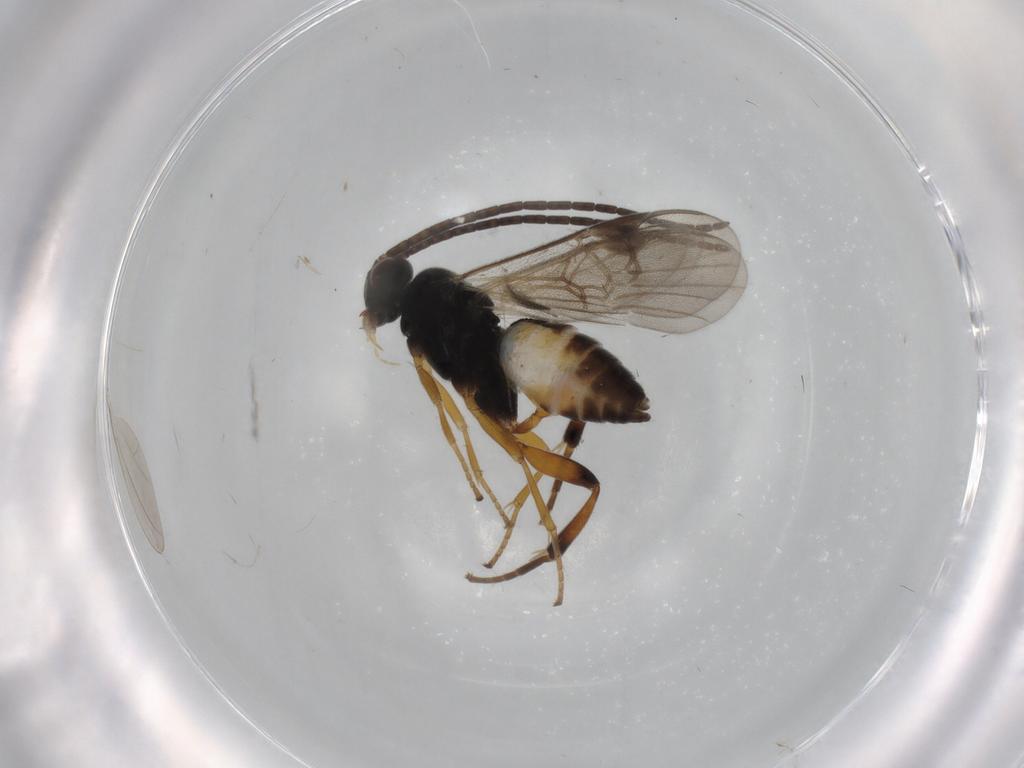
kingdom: Animalia
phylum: Arthropoda
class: Insecta
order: Hymenoptera
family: Braconidae
